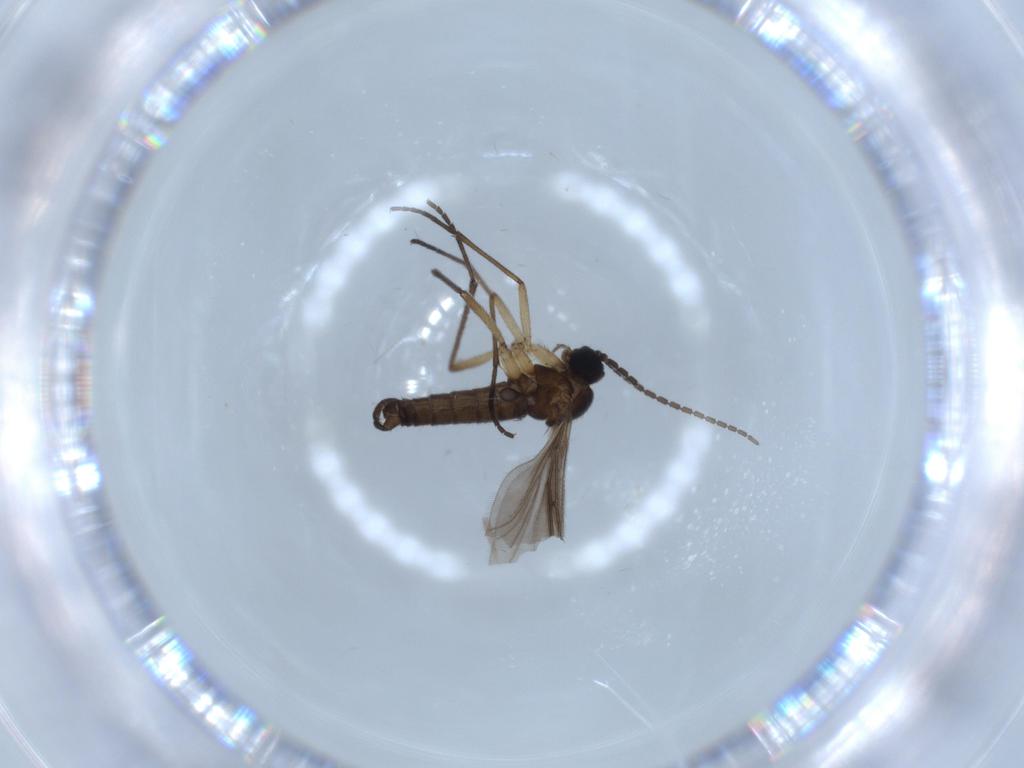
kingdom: Animalia
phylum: Arthropoda
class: Insecta
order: Diptera
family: Sciaridae
